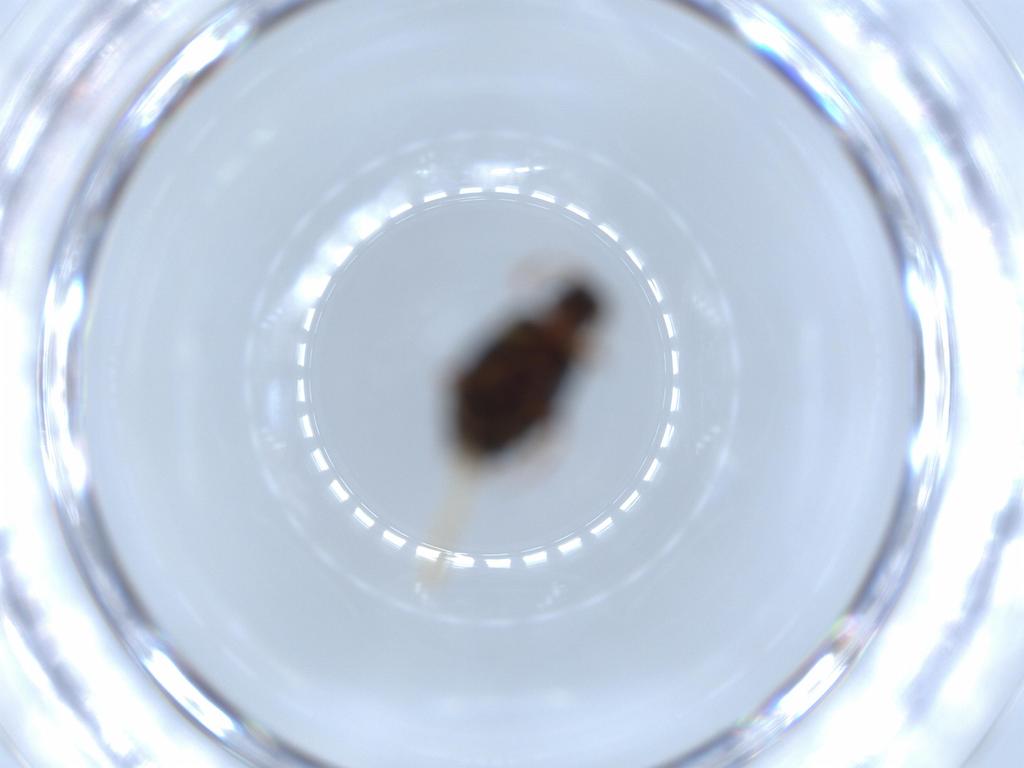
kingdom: Animalia
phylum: Arthropoda
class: Insecta
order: Coleoptera
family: Aderidae
